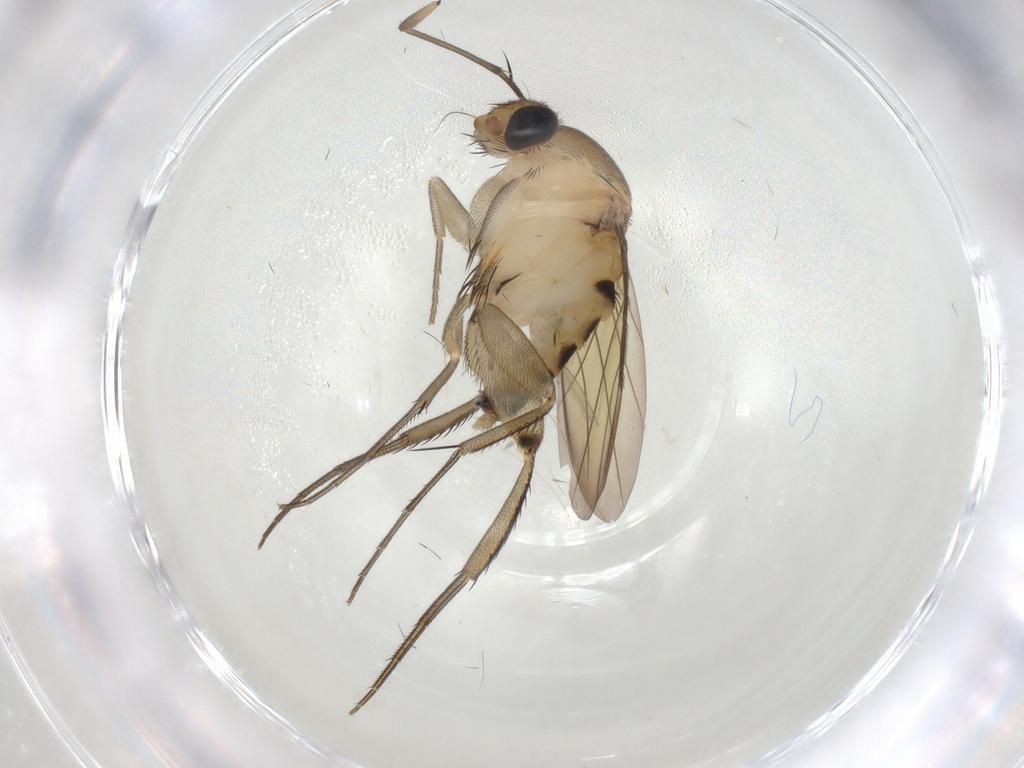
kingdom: Animalia
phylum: Arthropoda
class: Insecta
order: Diptera
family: Phoridae
